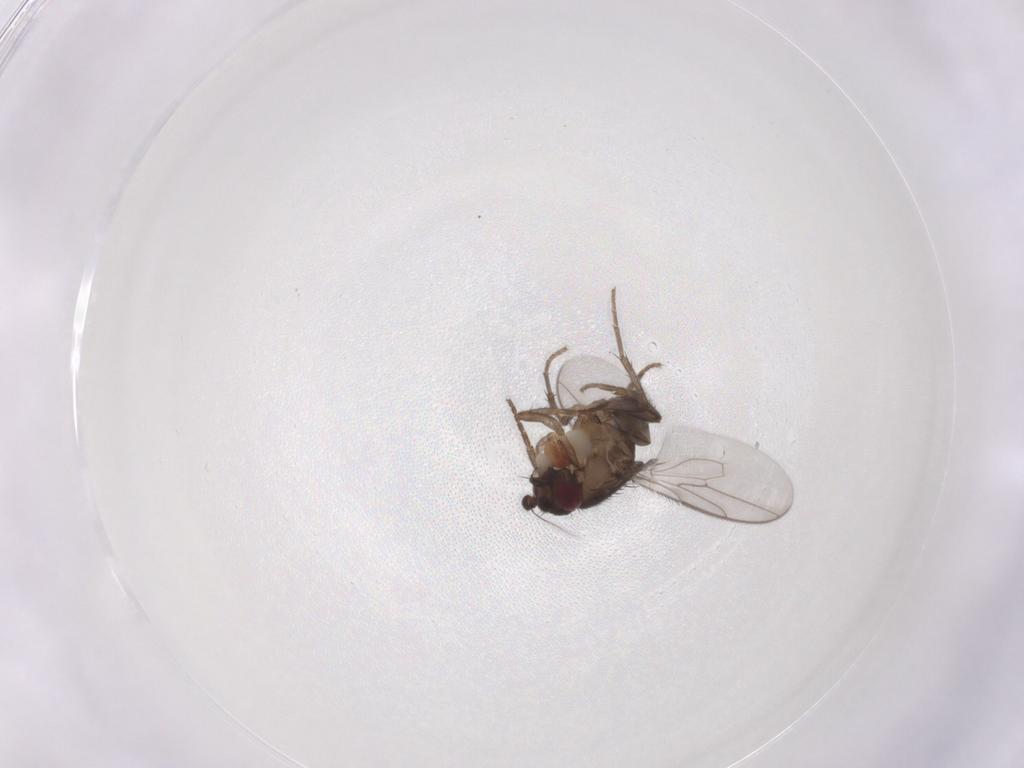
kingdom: Animalia
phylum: Arthropoda
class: Insecta
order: Diptera
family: Sphaeroceridae
